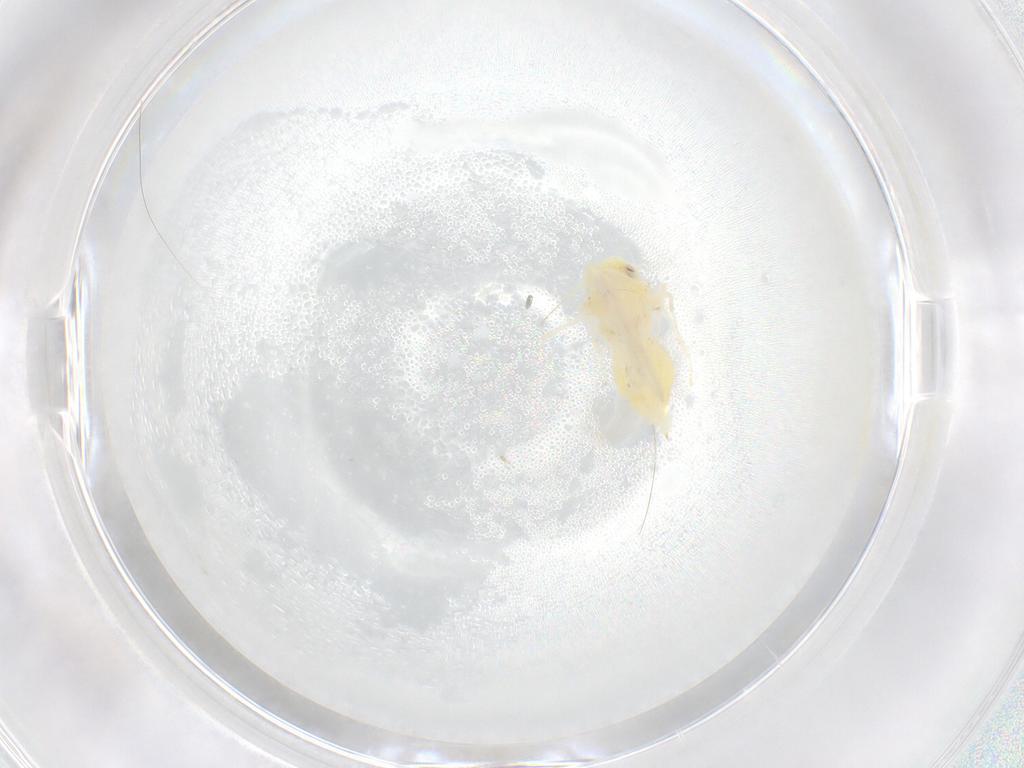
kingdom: Animalia
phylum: Arthropoda
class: Insecta
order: Hemiptera
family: Aleyrodidae
